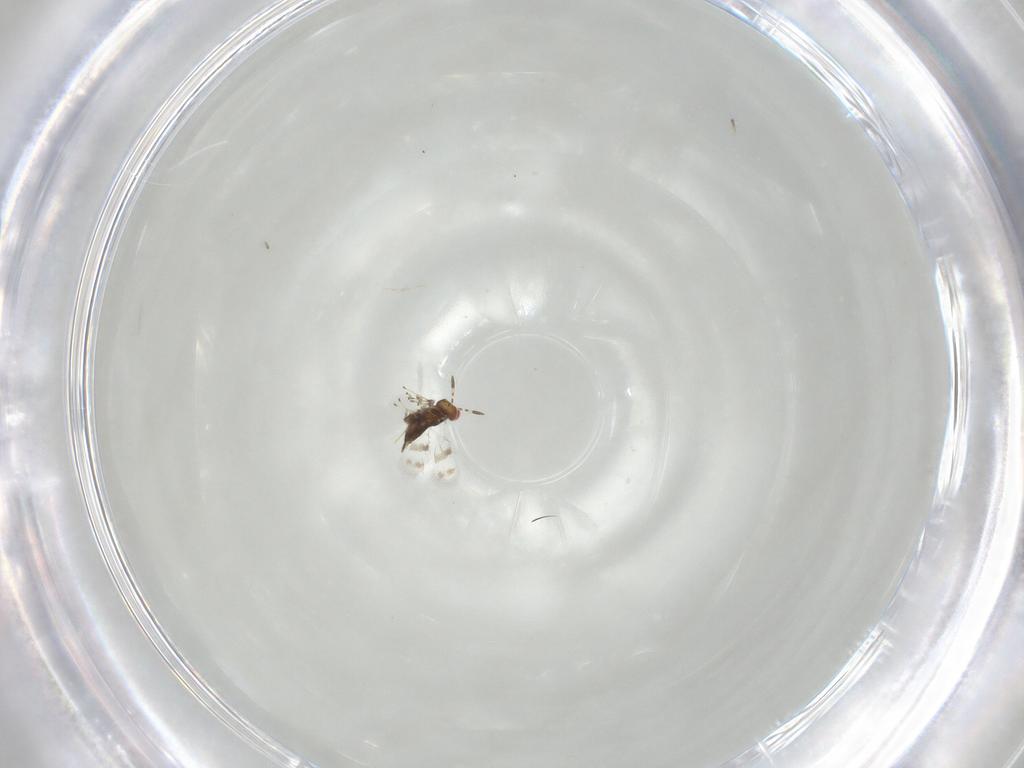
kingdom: Animalia
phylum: Arthropoda
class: Insecta
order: Hymenoptera
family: Azotidae
